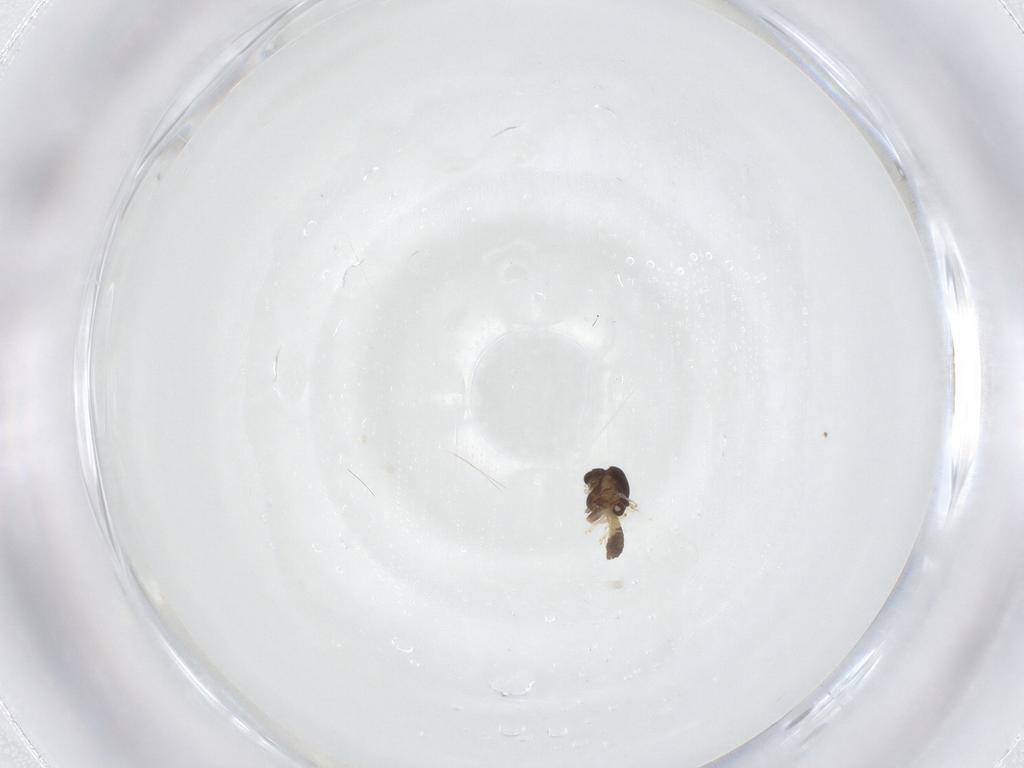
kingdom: Animalia
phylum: Arthropoda
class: Insecta
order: Diptera
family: Chironomidae
